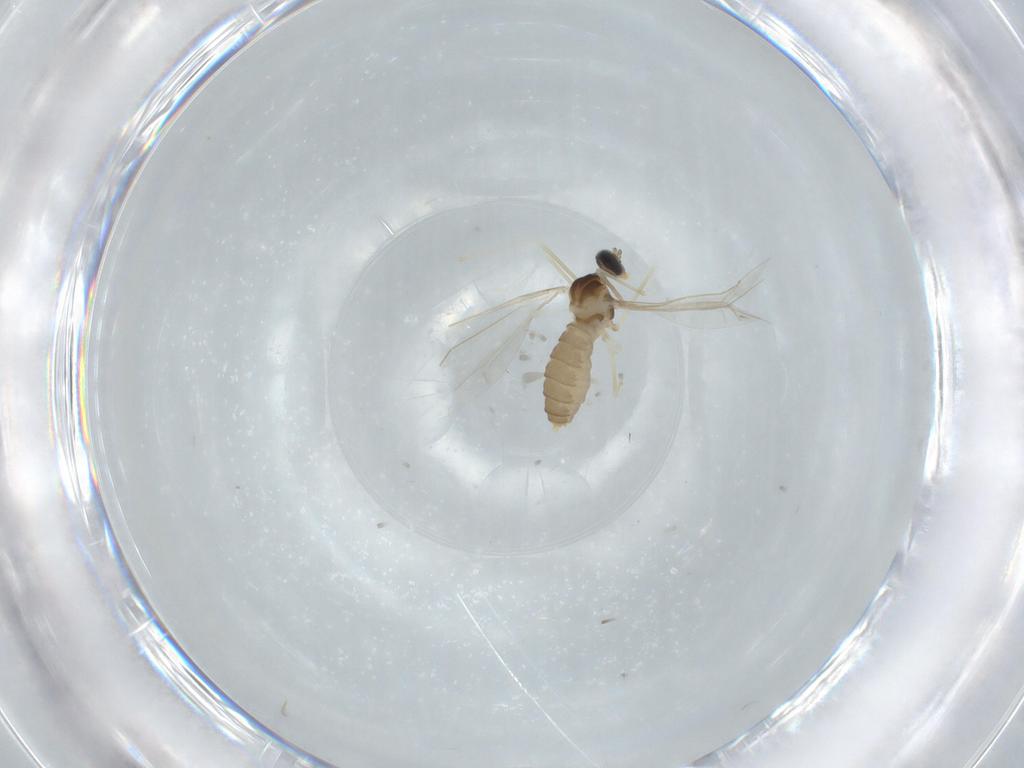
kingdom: Animalia
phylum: Arthropoda
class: Insecta
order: Diptera
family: Cecidomyiidae
